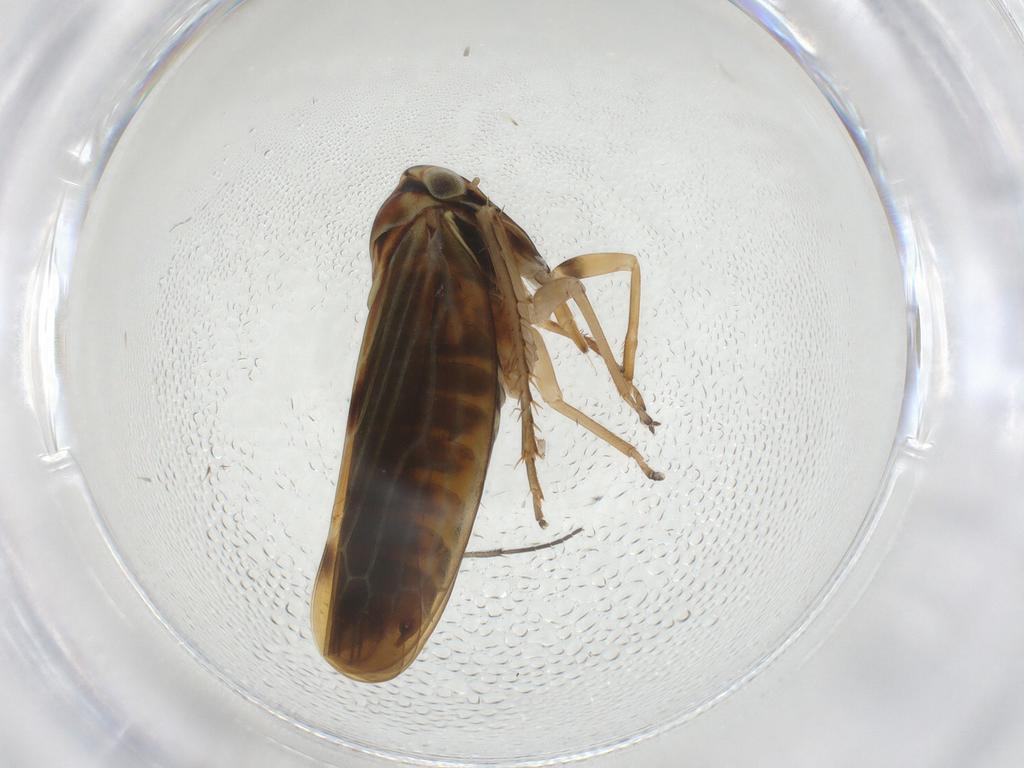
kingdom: Animalia
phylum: Arthropoda
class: Insecta
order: Hemiptera
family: Cicadellidae
